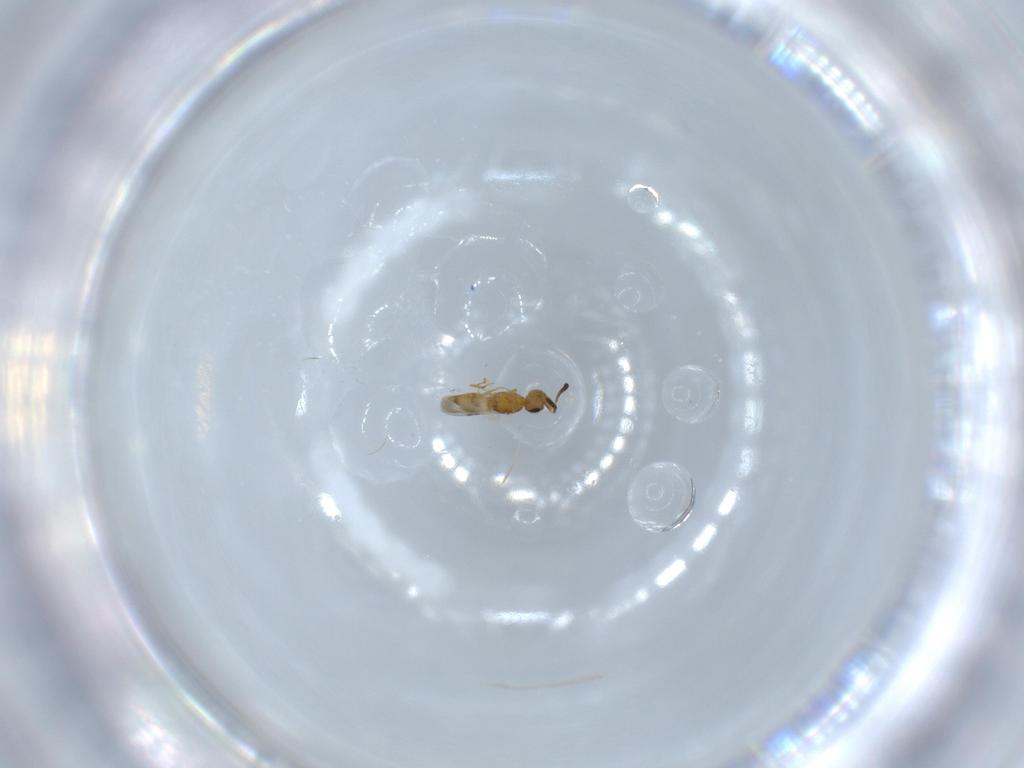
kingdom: Animalia
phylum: Arthropoda
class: Insecta
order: Hymenoptera
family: Ceraphronidae
